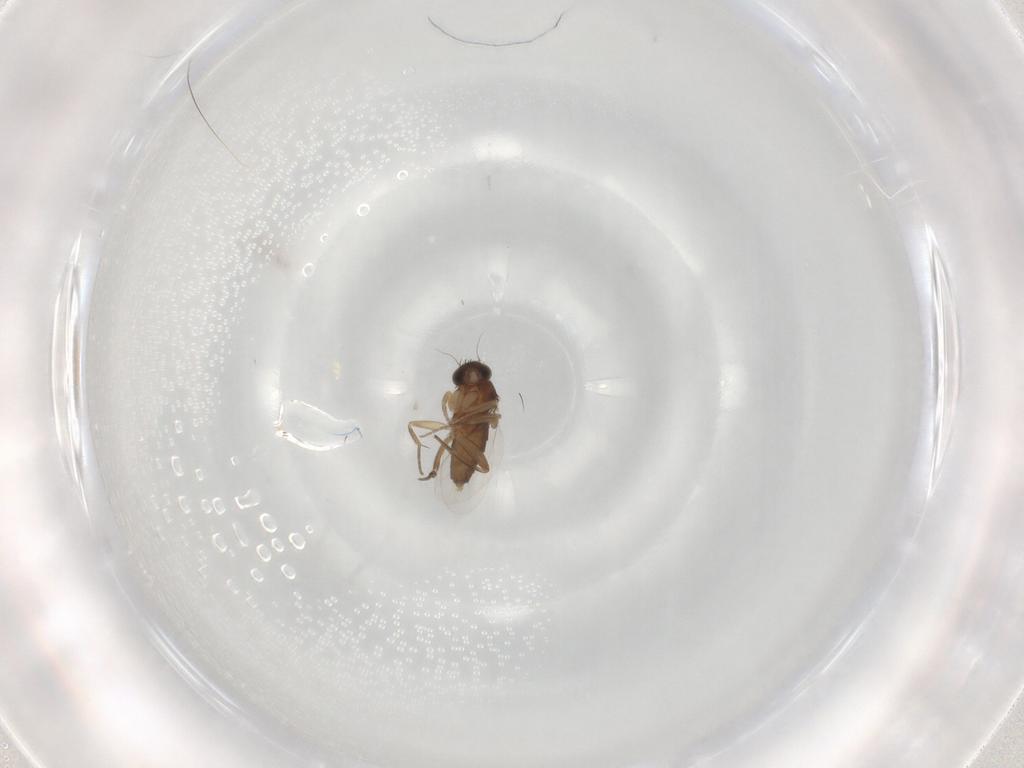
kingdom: Animalia
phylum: Arthropoda
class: Insecta
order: Diptera
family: Phoridae
